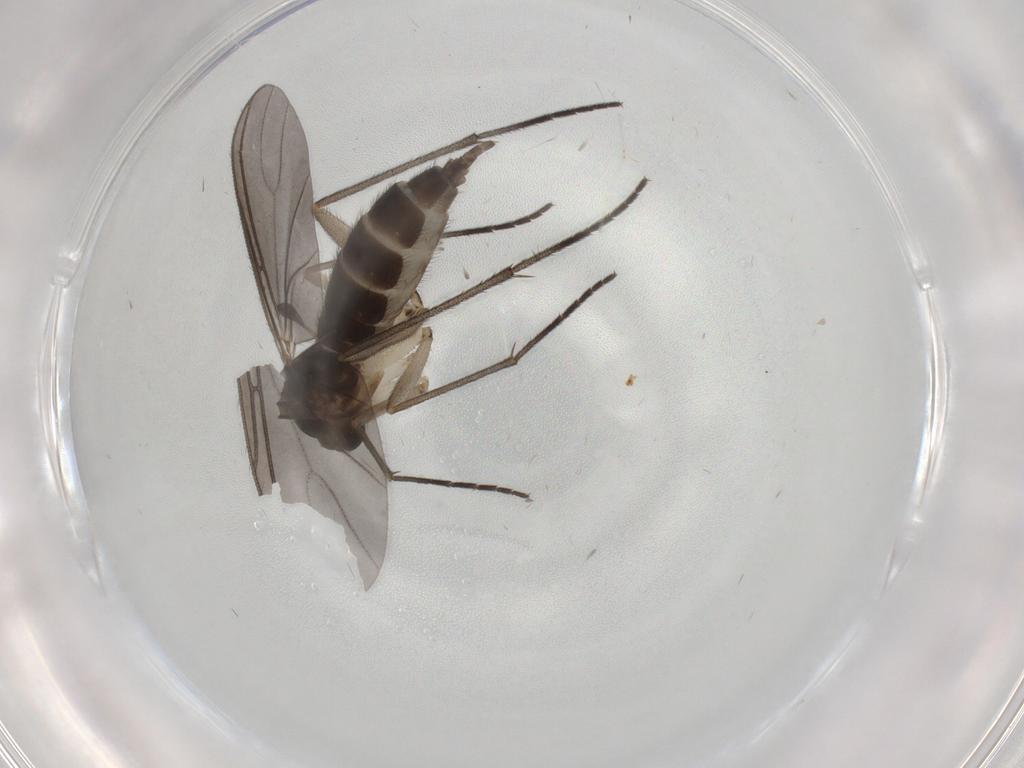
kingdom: Animalia
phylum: Arthropoda
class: Insecta
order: Diptera
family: Sciaridae
